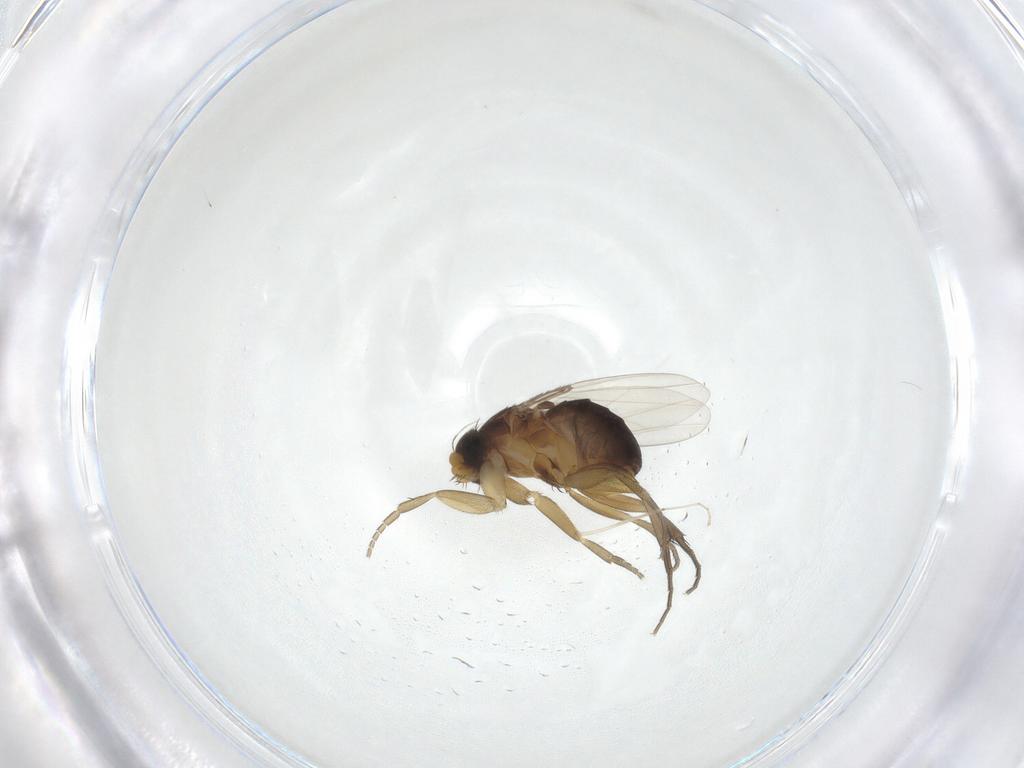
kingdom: Animalia
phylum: Arthropoda
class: Insecta
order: Diptera
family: Phoridae
